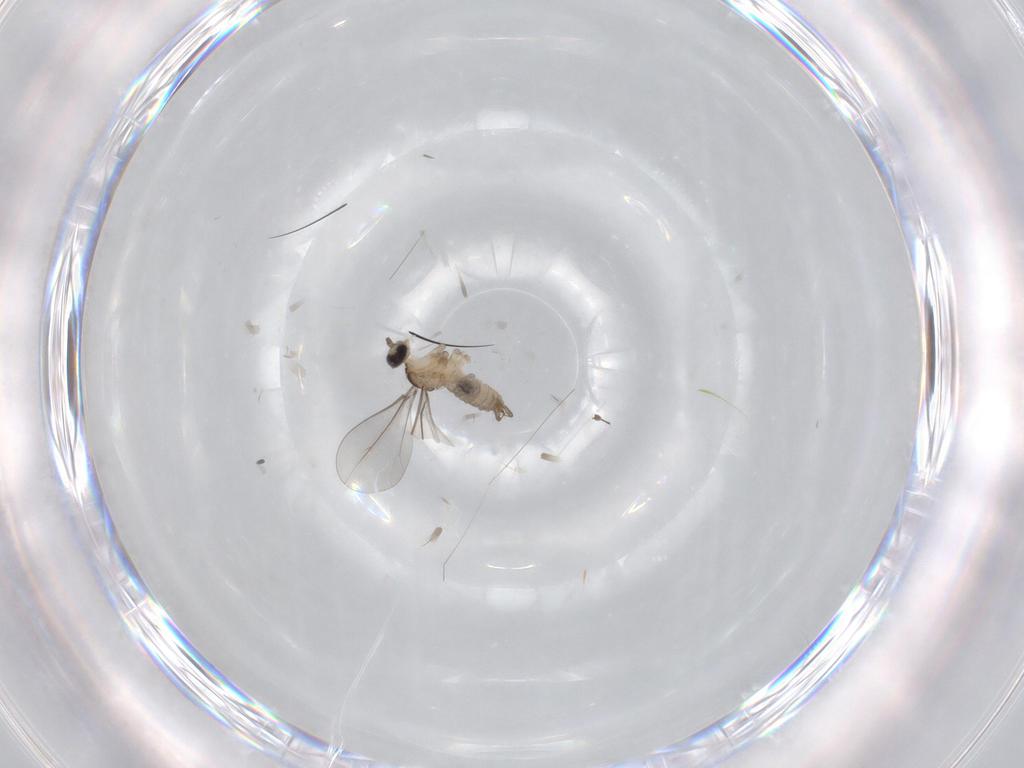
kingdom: Animalia
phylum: Arthropoda
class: Insecta
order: Diptera
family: Cecidomyiidae
